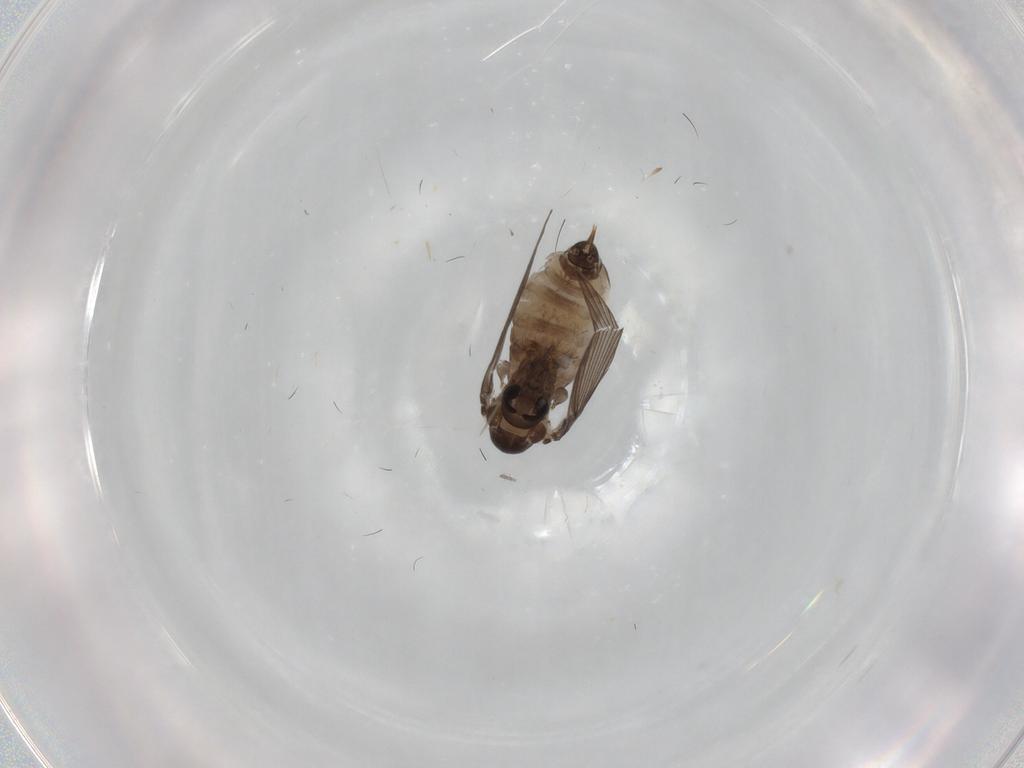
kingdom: Animalia
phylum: Arthropoda
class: Insecta
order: Diptera
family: Psychodidae
